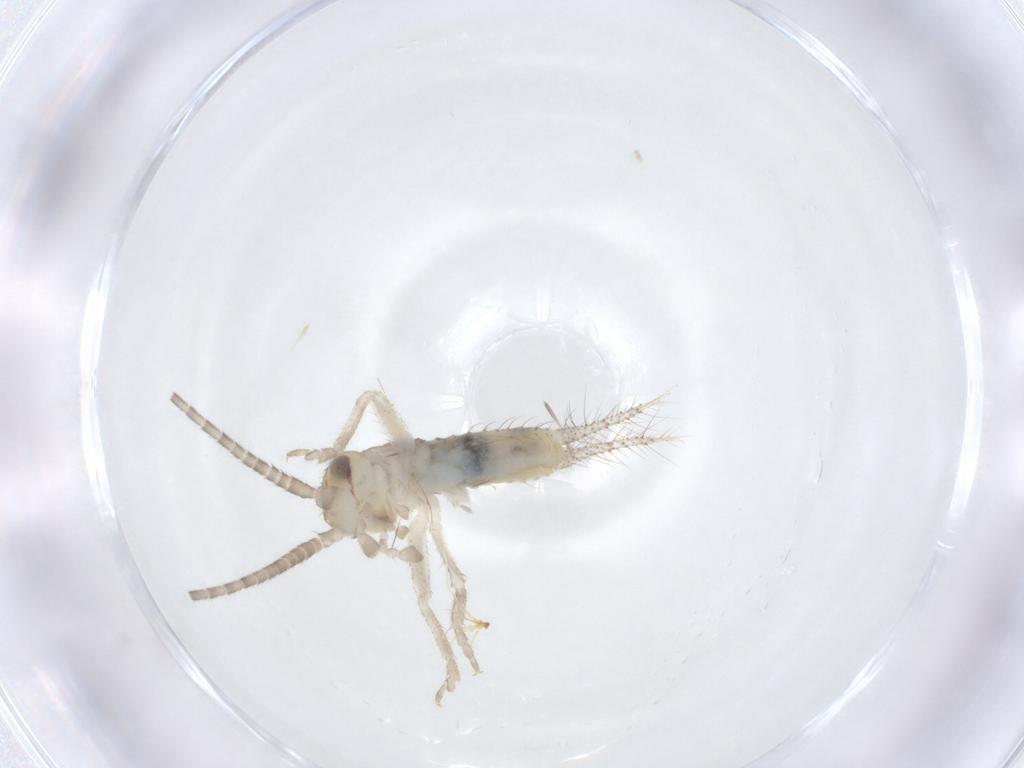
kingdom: Animalia
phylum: Arthropoda
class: Insecta
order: Orthoptera
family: Gryllidae
